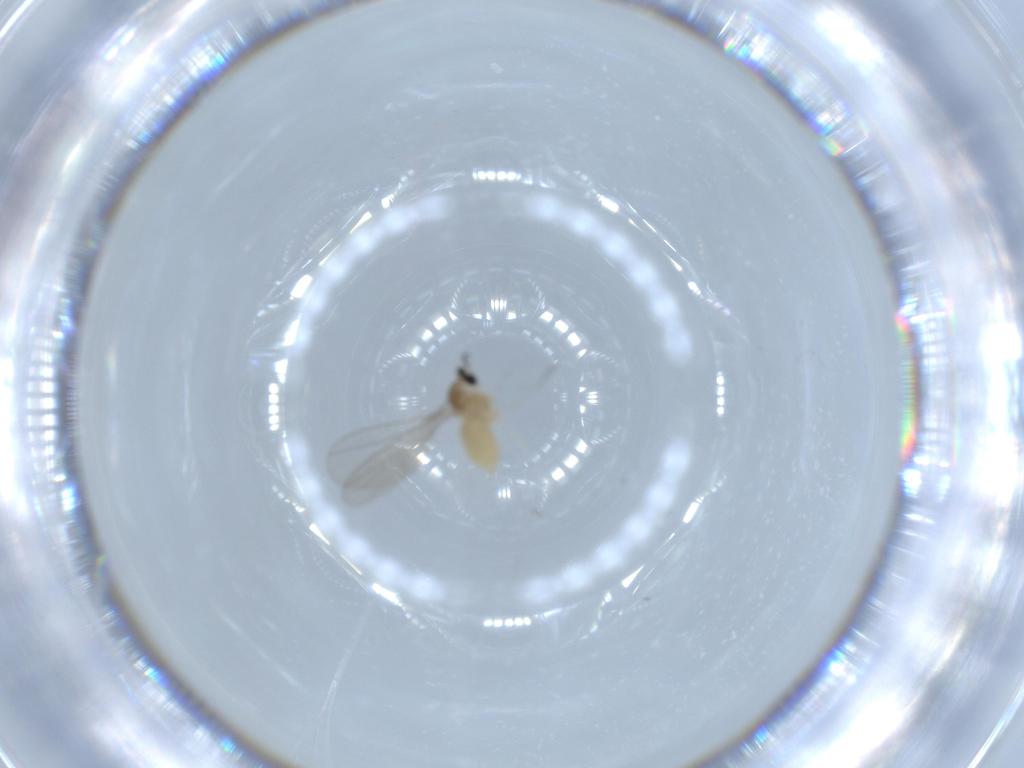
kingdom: Animalia
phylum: Arthropoda
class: Insecta
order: Diptera
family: Cecidomyiidae
